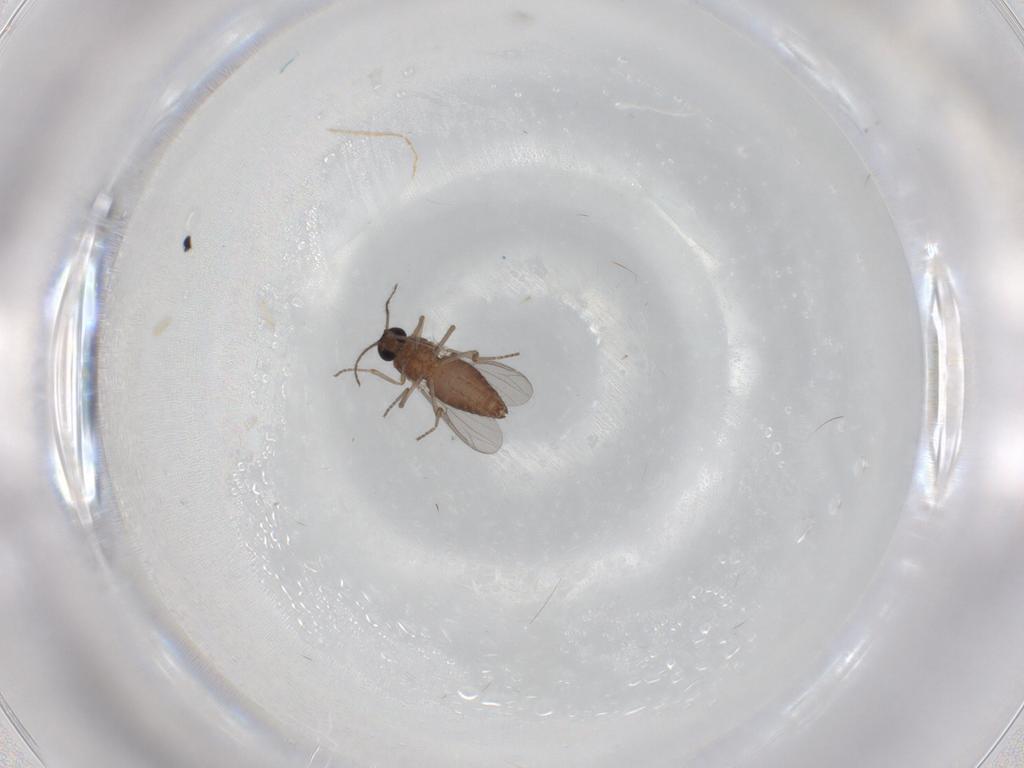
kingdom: Animalia
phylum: Arthropoda
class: Insecta
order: Diptera
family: Ceratopogonidae
